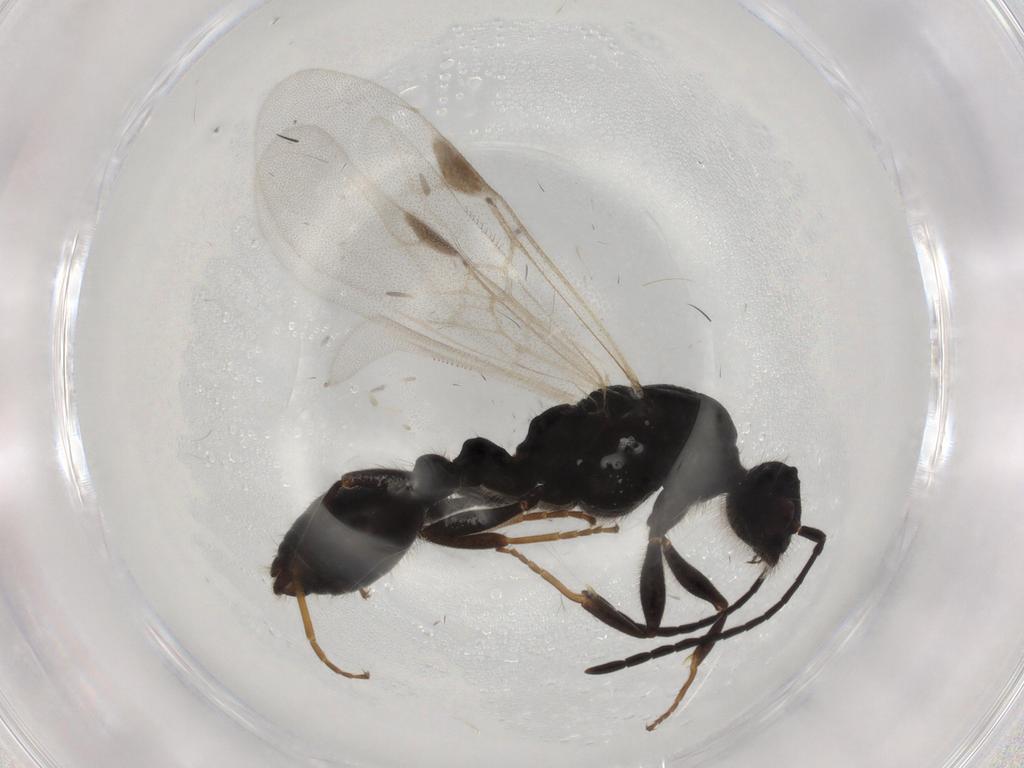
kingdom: Animalia
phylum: Arthropoda
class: Insecta
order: Hymenoptera
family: Formicidae
